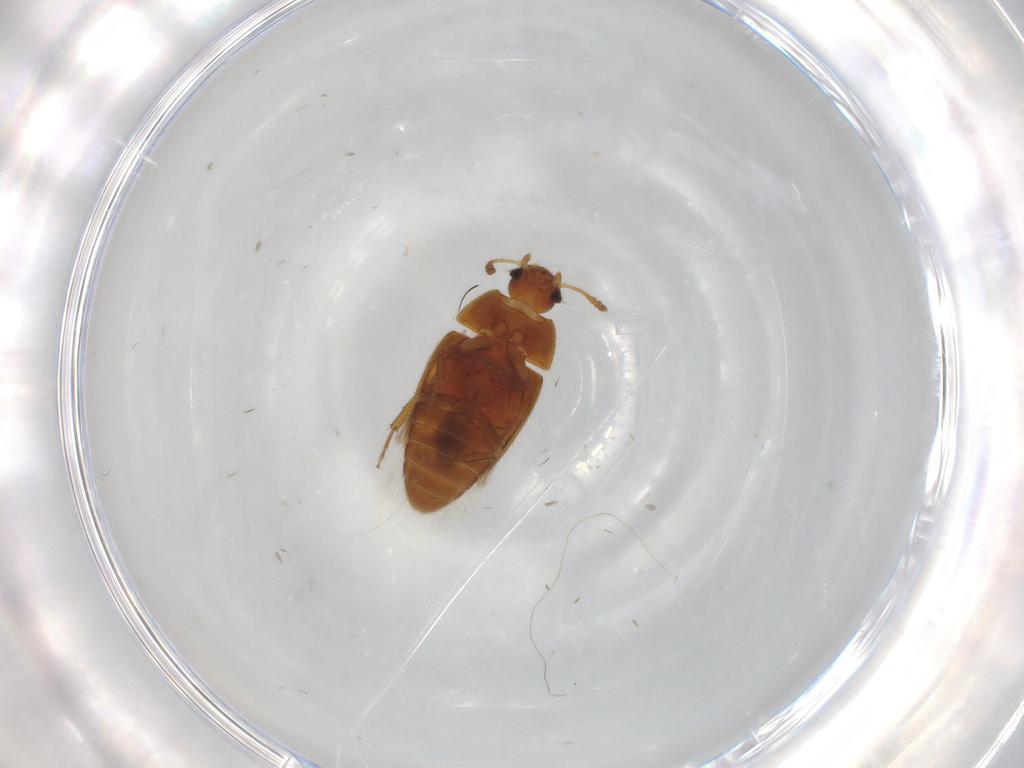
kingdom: Animalia
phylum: Arthropoda
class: Insecta
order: Coleoptera
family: Mycetophagidae
